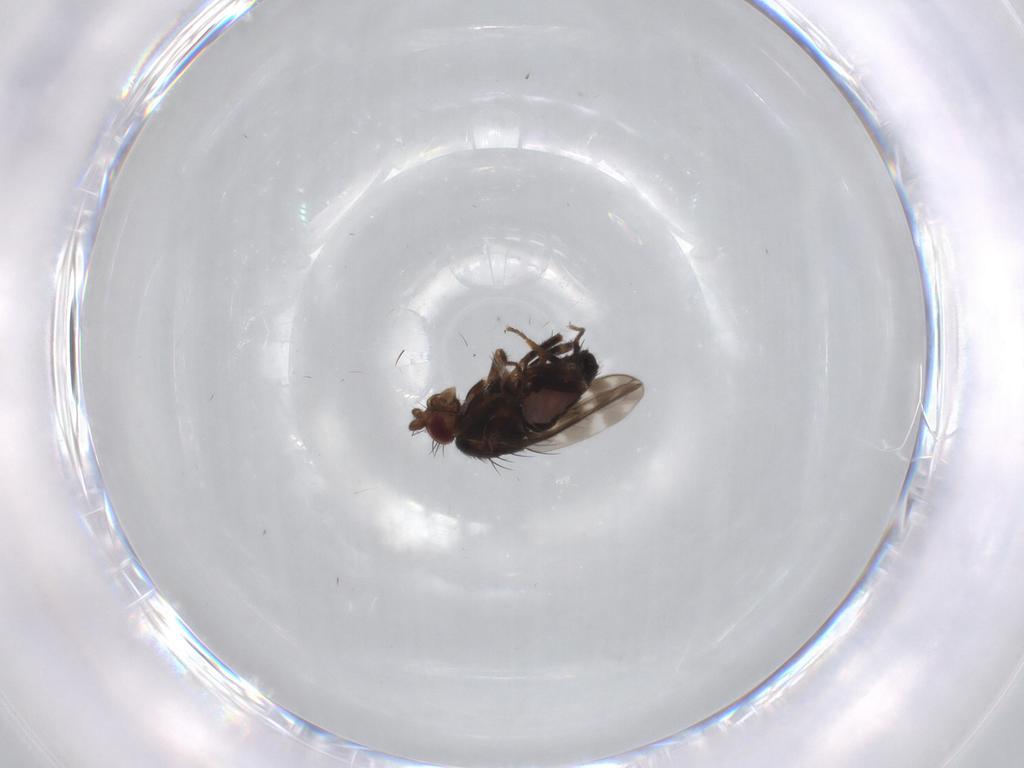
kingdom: Animalia
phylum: Arthropoda
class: Insecta
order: Diptera
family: Sphaeroceridae
